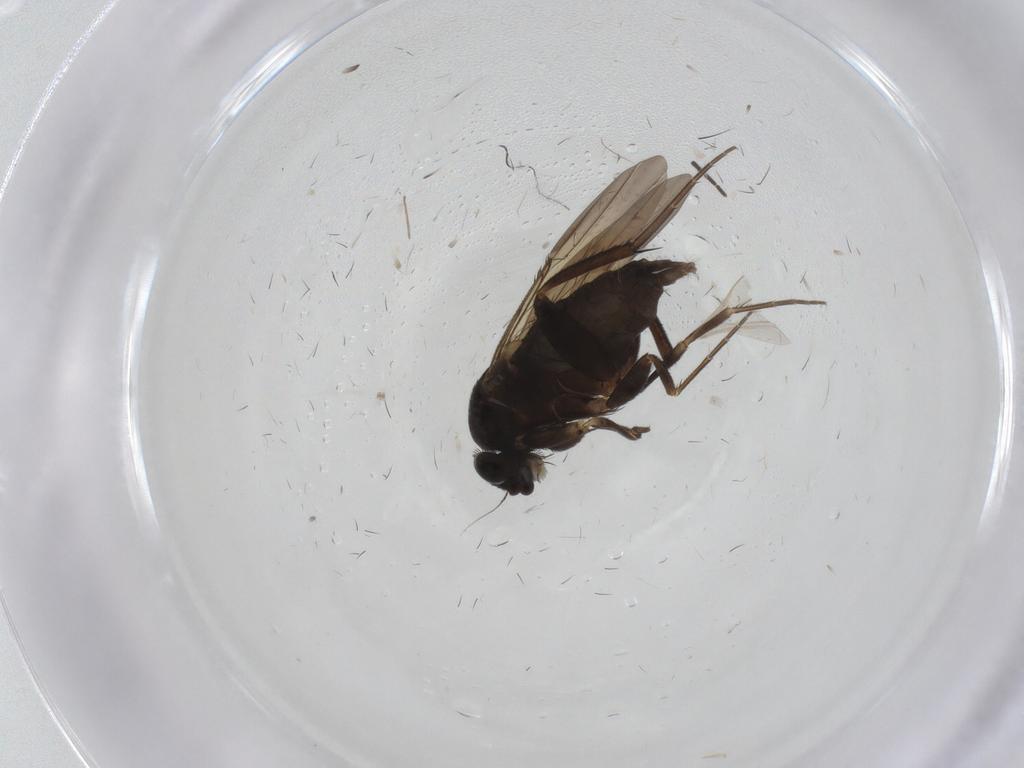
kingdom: Animalia
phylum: Arthropoda
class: Insecta
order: Diptera
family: Phoridae
